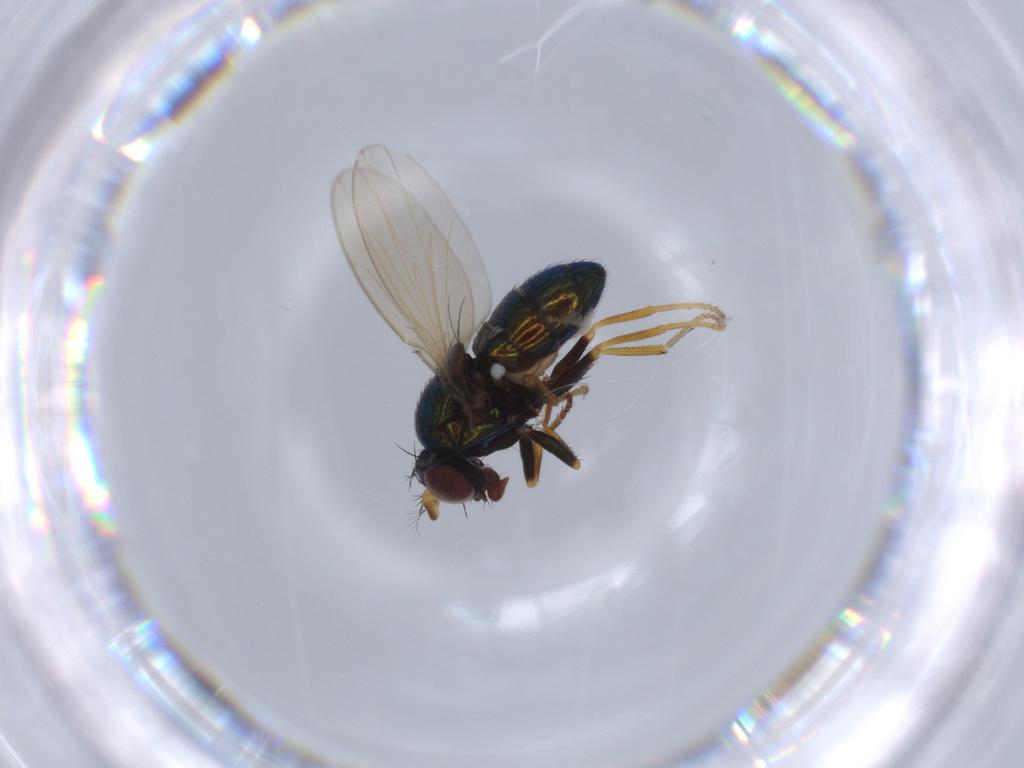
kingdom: Animalia
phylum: Arthropoda
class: Insecta
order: Diptera
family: Ephydridae
